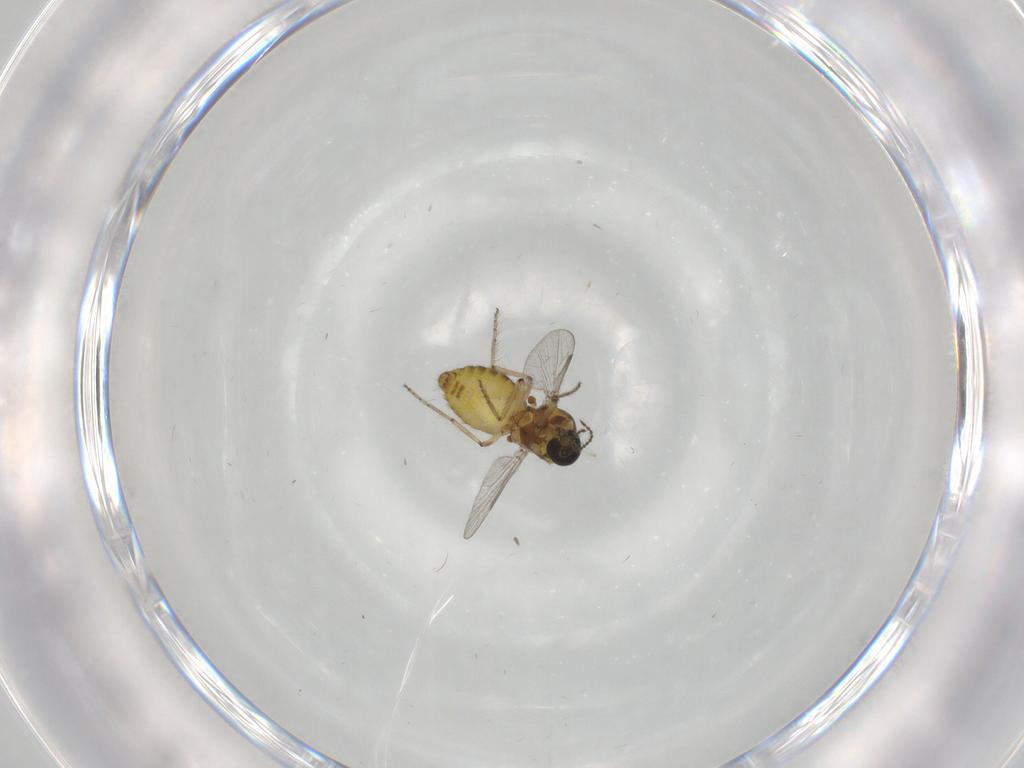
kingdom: Animalia
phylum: Arthropoda
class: Insecta
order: Diptera
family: Ceratopogonidae
